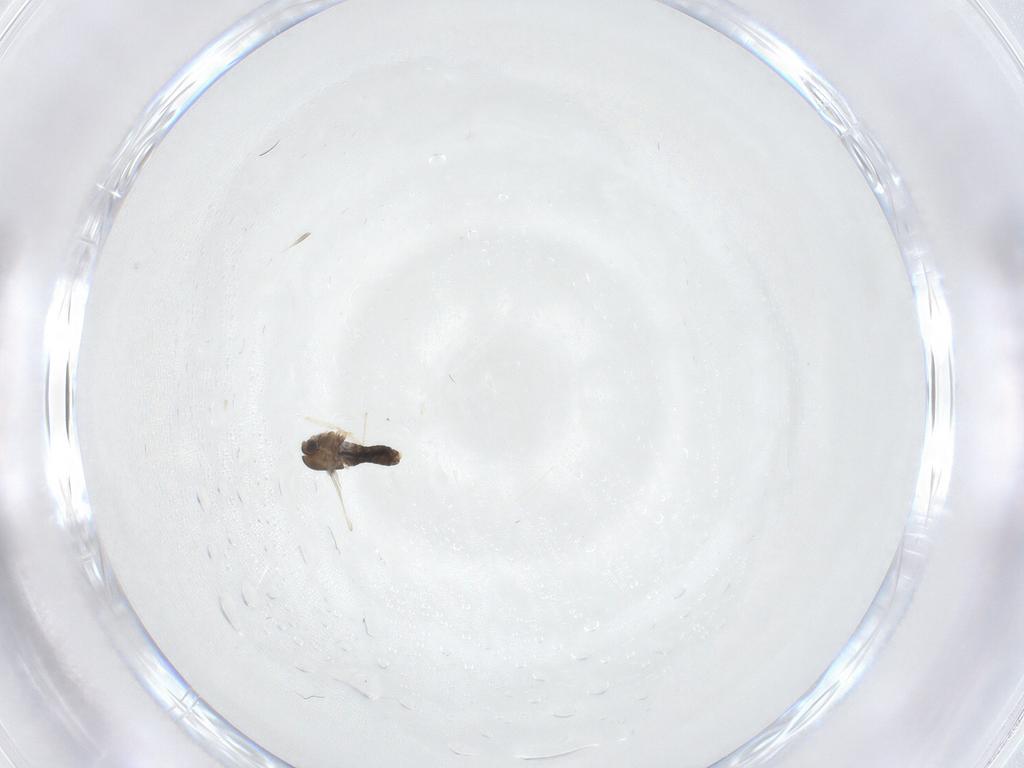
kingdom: Animalia
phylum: Arthropoda
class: Insecta
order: Diptera
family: Chironomidae
